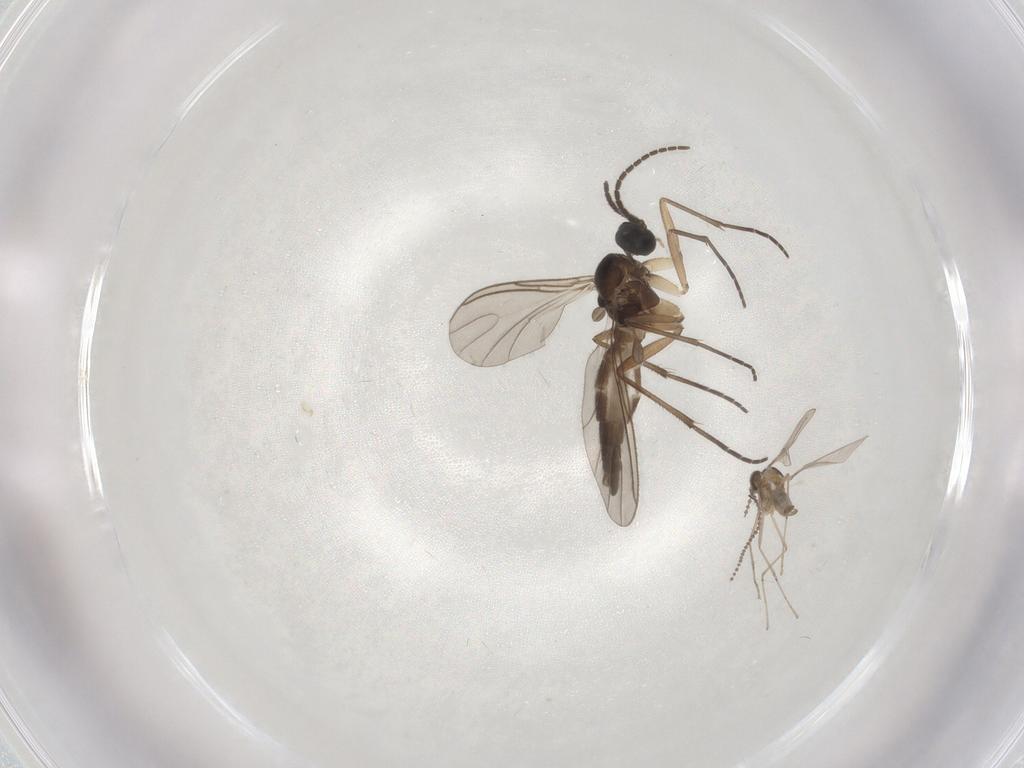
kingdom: Animalia
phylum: Arthropoda
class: Insecta
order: Diptera
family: Sciaridae
